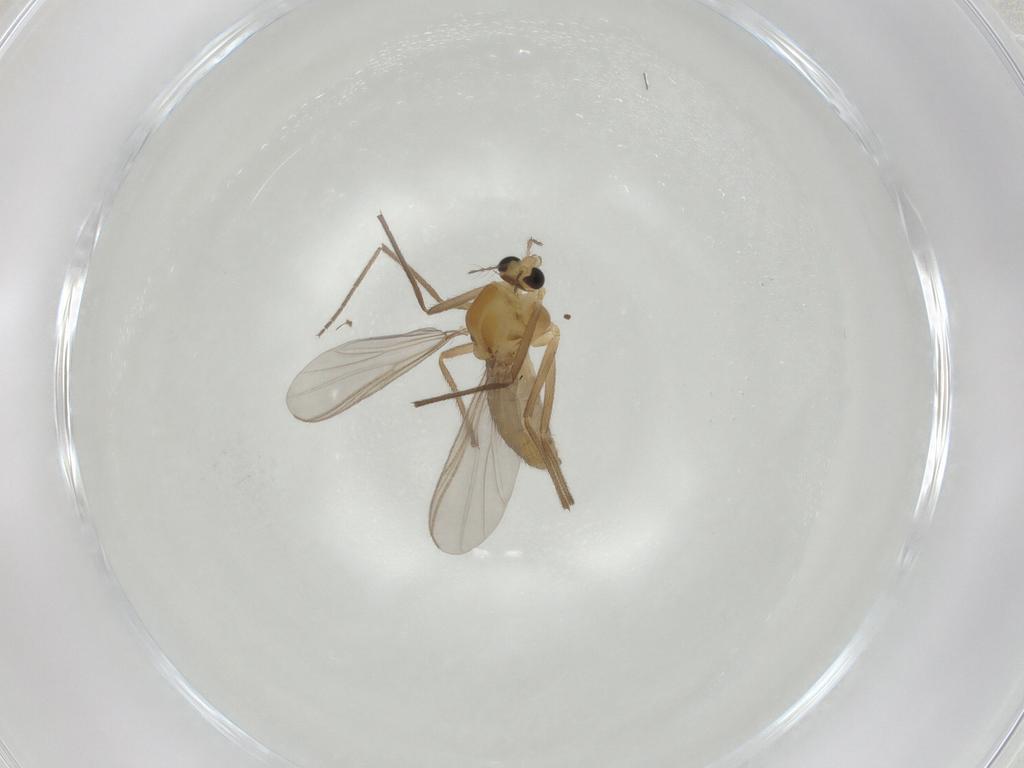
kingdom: Animalia
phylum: Arthropoda
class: Insecta
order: Diptera
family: Chironomidae
